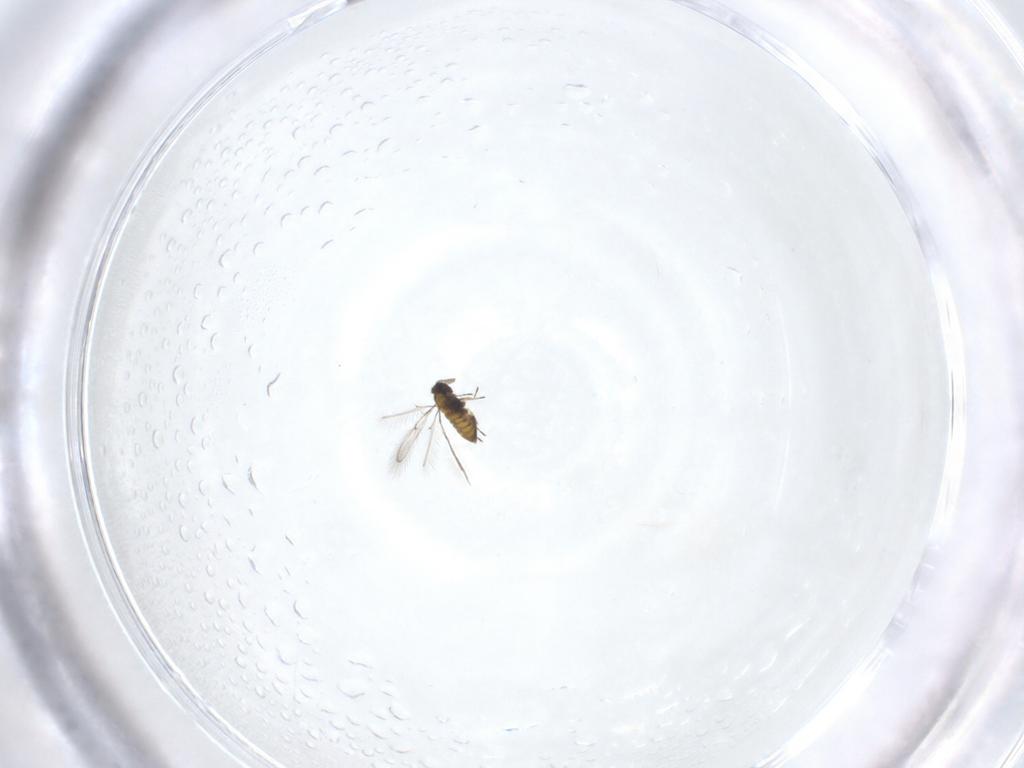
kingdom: Animalia
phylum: Arthropoda
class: Insecta
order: Hymenoptera
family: Trichogrammatidae
